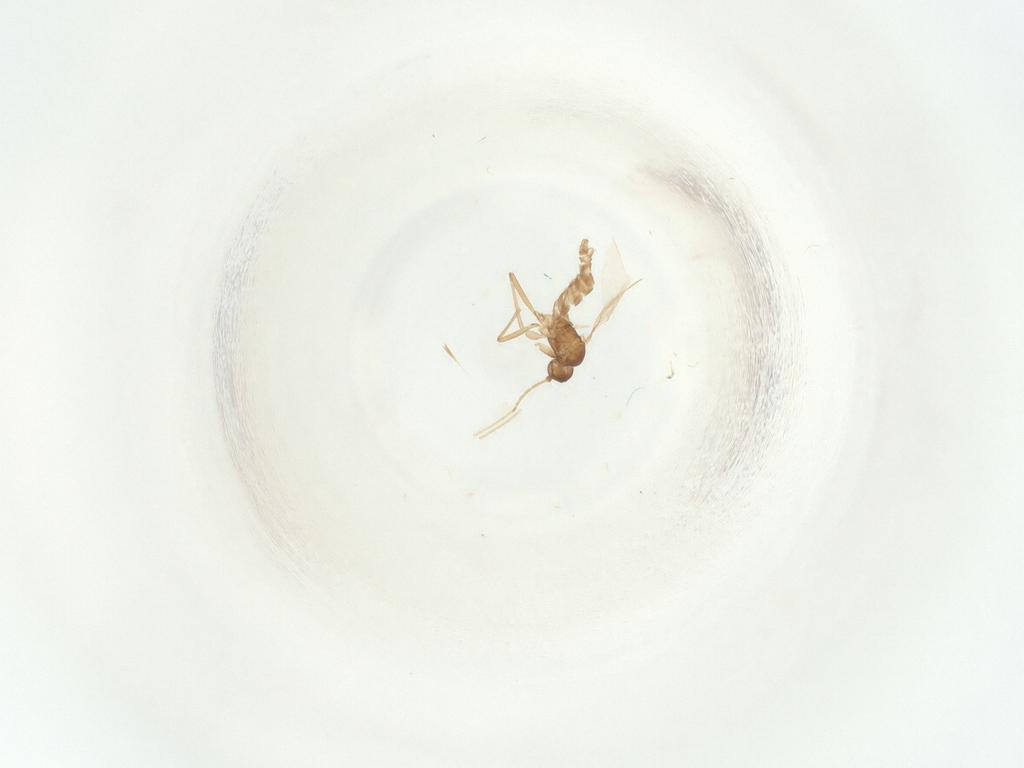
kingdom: Animalia
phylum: Arthropoda
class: Insecta
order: Diptera
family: Sciaridae
